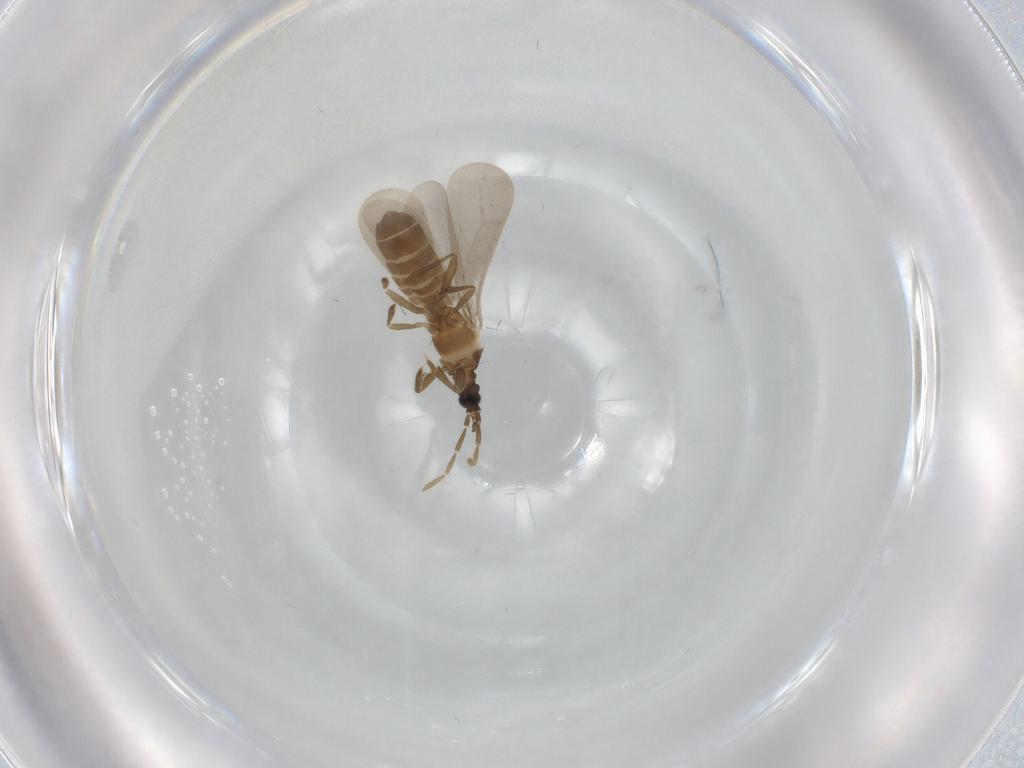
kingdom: Animalia
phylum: Arthropoda
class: Insecta
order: Hemiptera
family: Enicocephalidae
